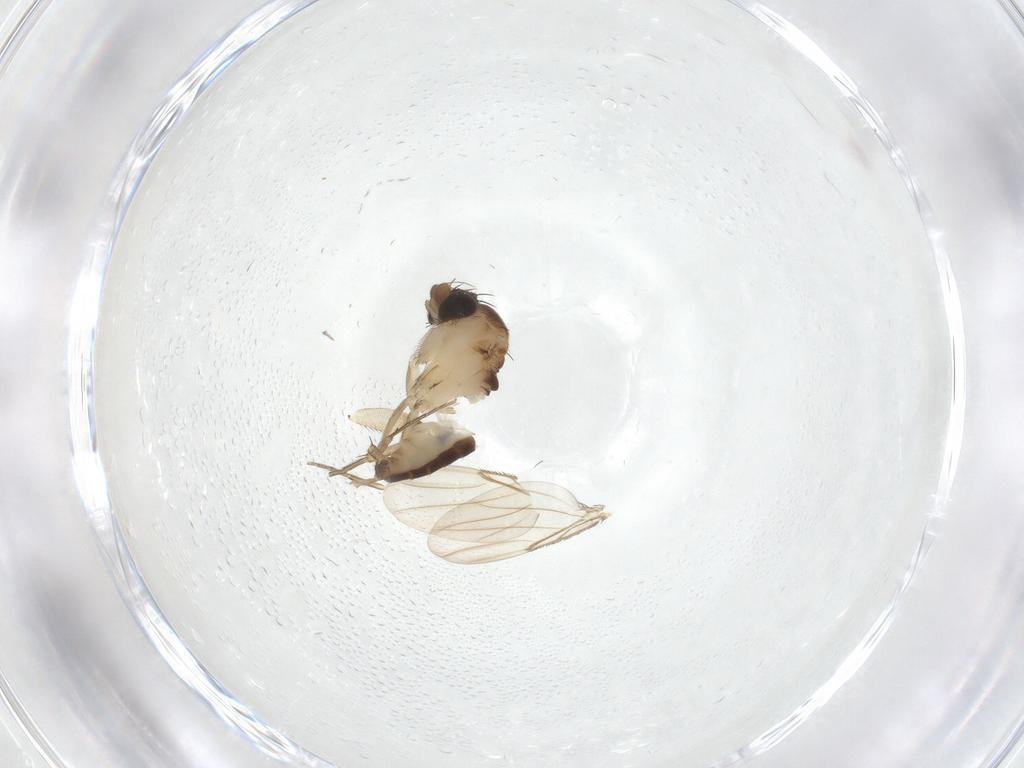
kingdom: Animalia
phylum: Arthropoda
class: Insecta
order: Diptera
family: Phoridae
